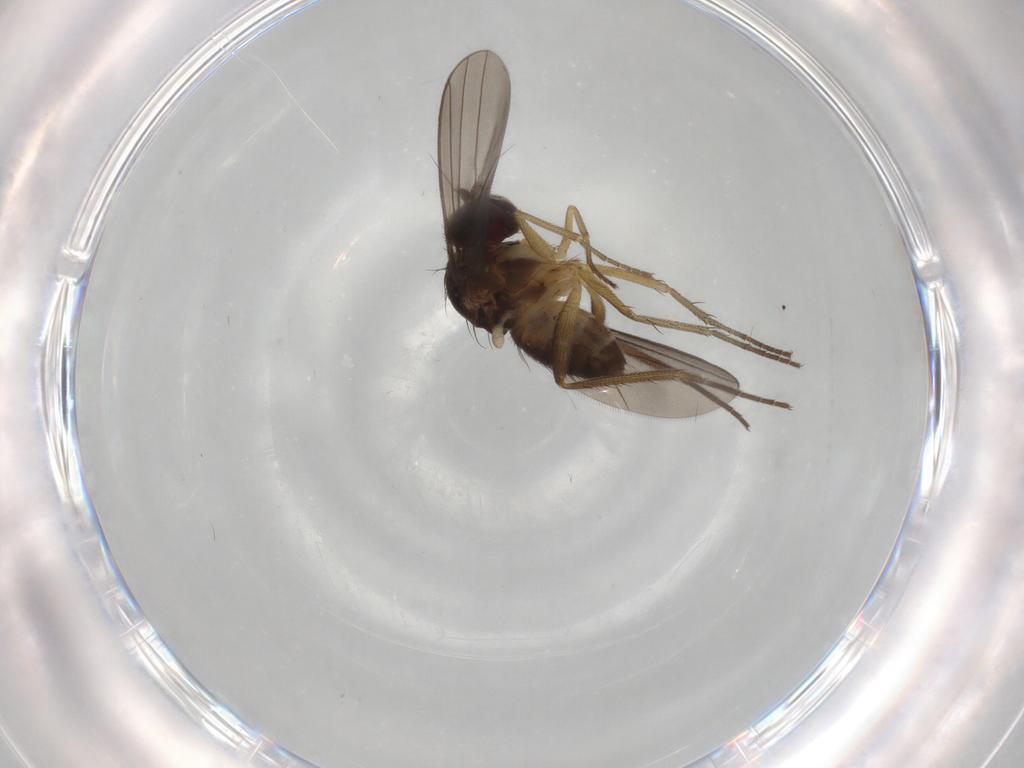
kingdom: Animalia
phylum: Arthropoda
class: Insecta
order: Diptera
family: Dolichopodidae
